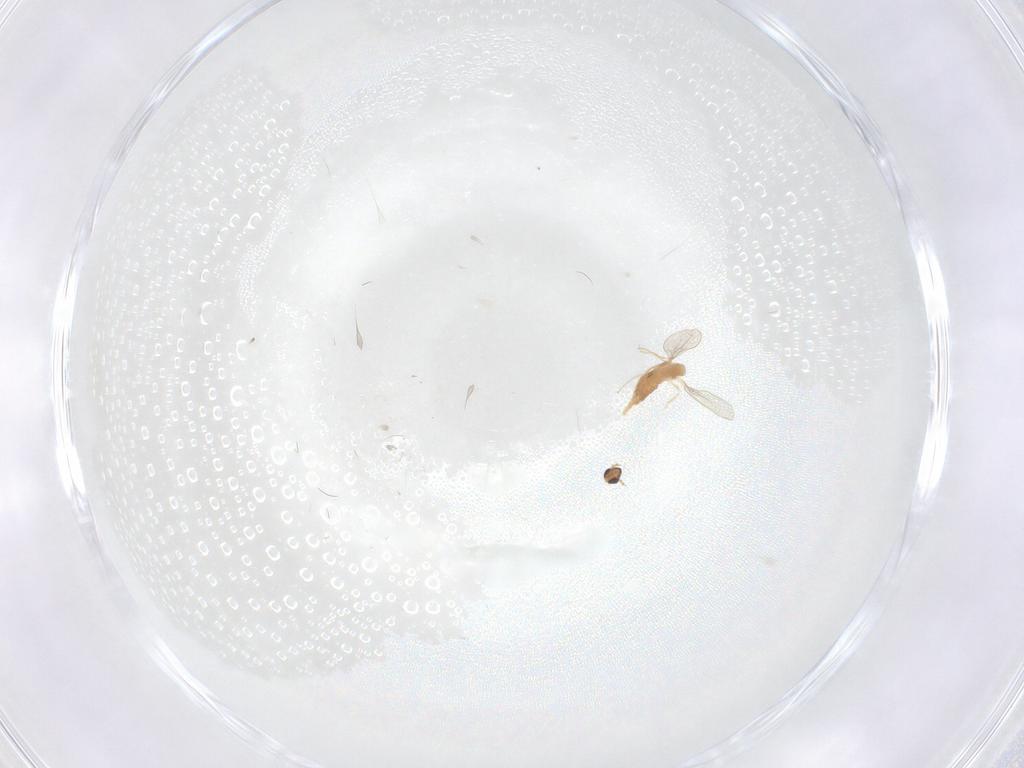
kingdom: Animalia
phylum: Arthropoda
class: Insecta
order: Diptera
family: Cecidomyiidae
